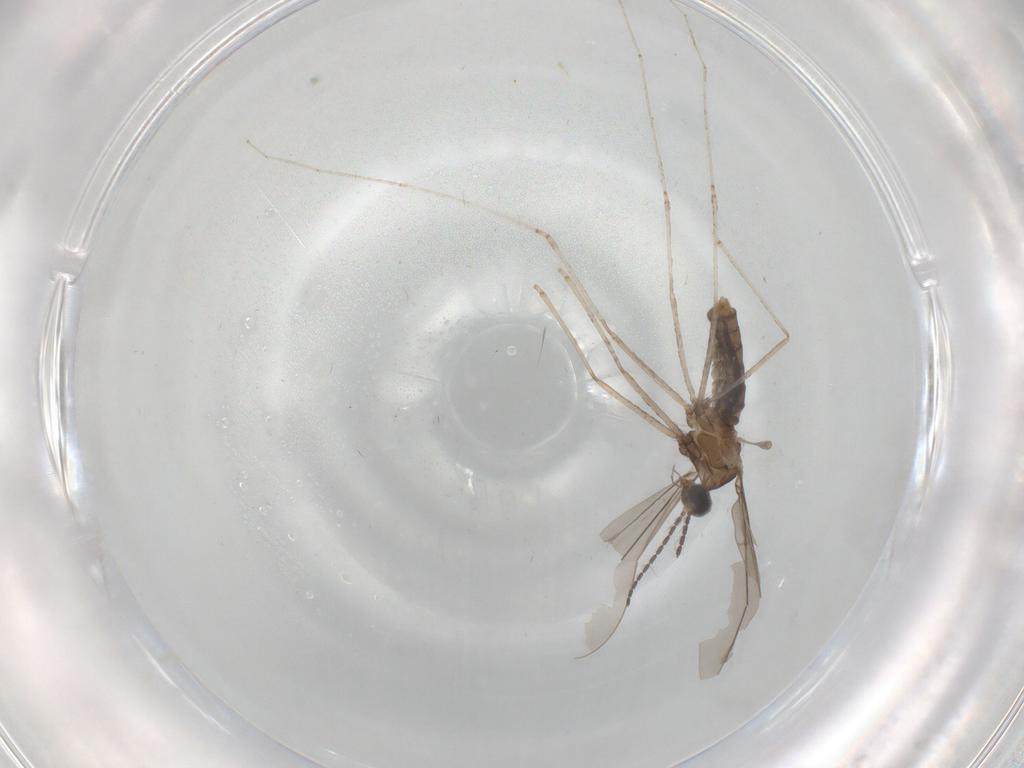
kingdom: Animalia
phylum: Arthropoda
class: Insecta
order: Diptera
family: Cecidomyiidae
